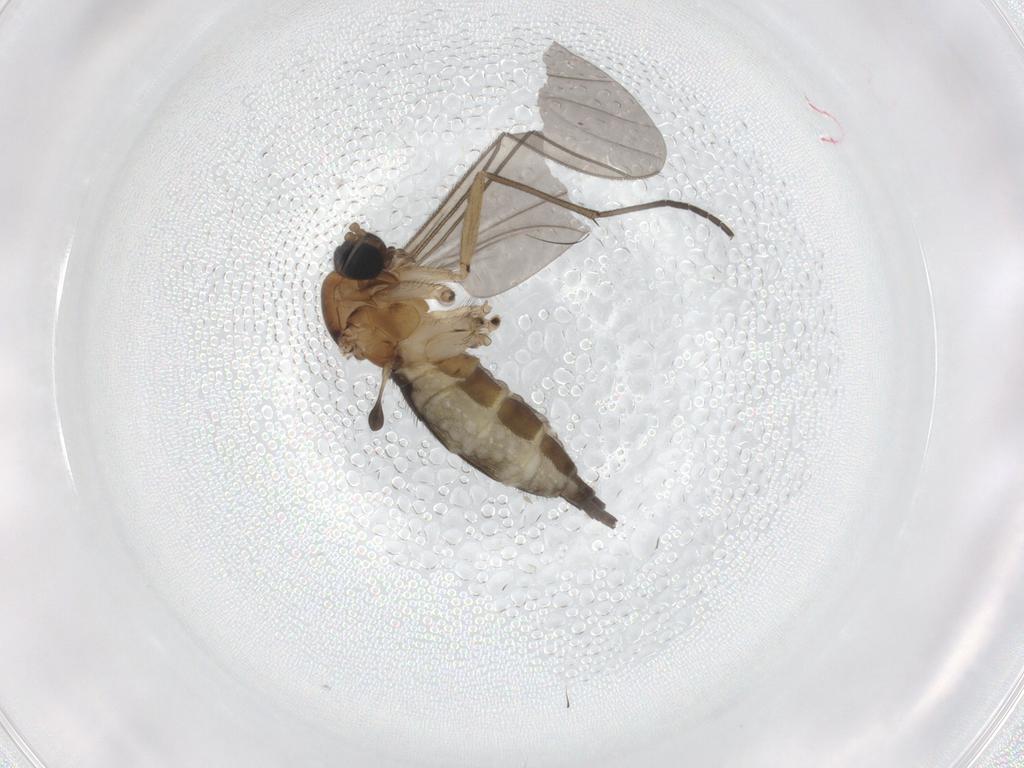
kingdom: Animalia
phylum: Arthropoda
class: Insecta
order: Diptera
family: Sciaridae
